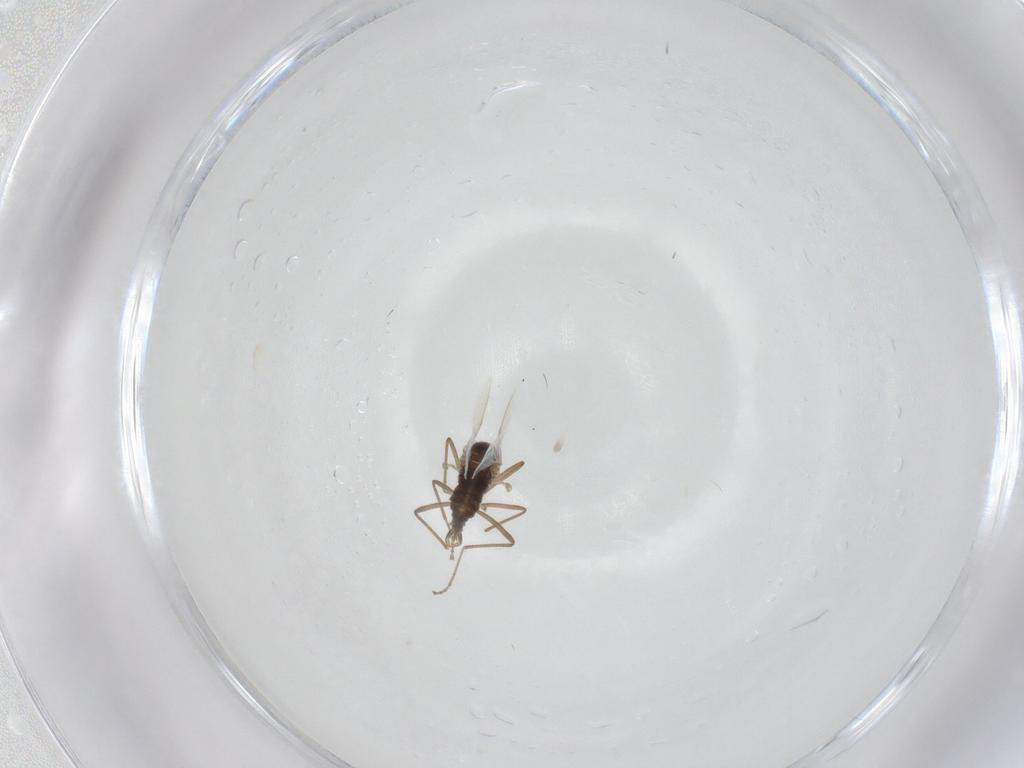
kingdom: Animalia
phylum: Arthropoda
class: Insecta
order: Diptera
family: Cecidomyiidae
